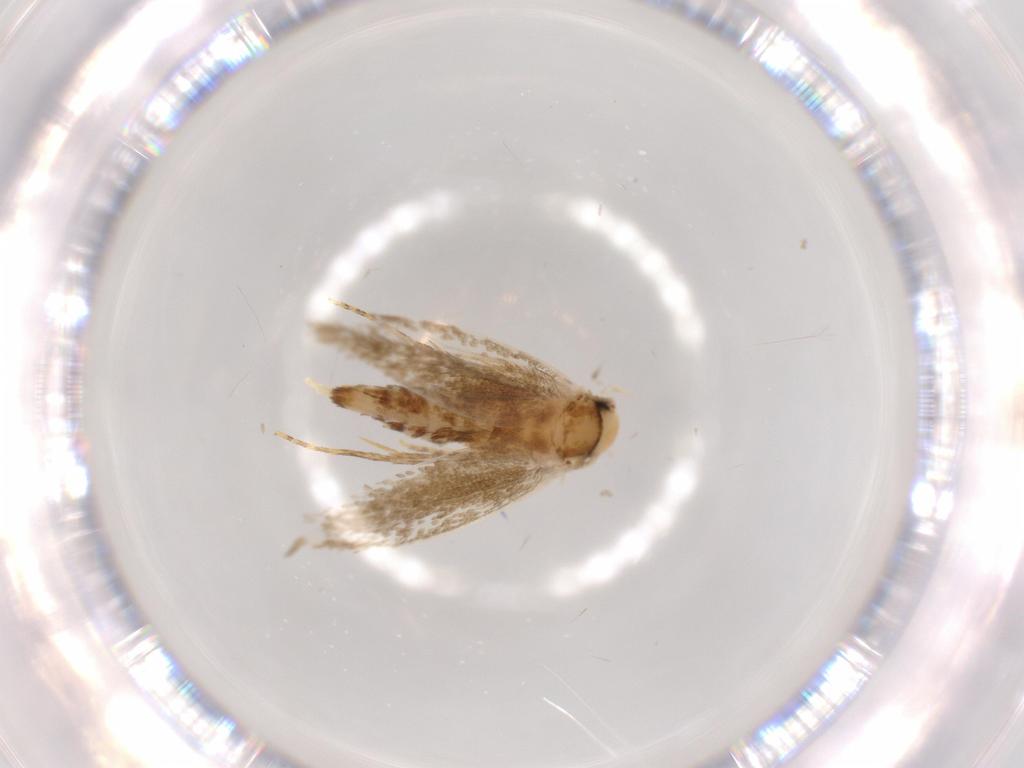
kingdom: Animalia
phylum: Arthropoda
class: Insecta
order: Lepidoptera
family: Tineidae
